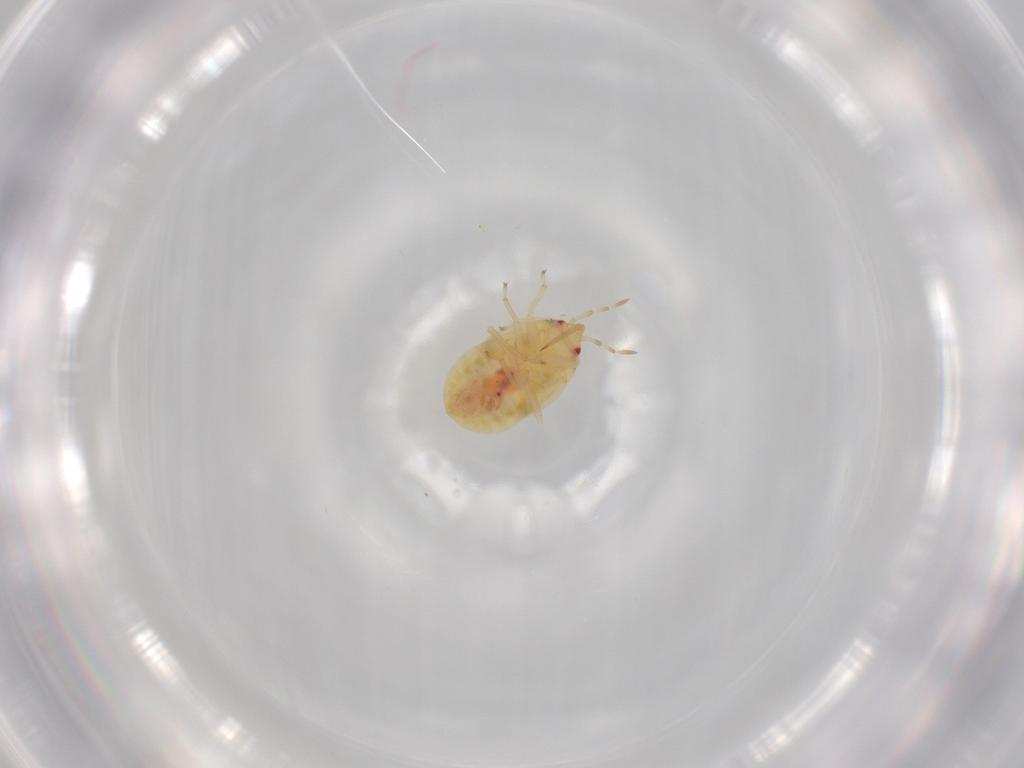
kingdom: Animalia
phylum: Arthropoda
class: Insecta
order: Hemiptera
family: Anthocoridae
